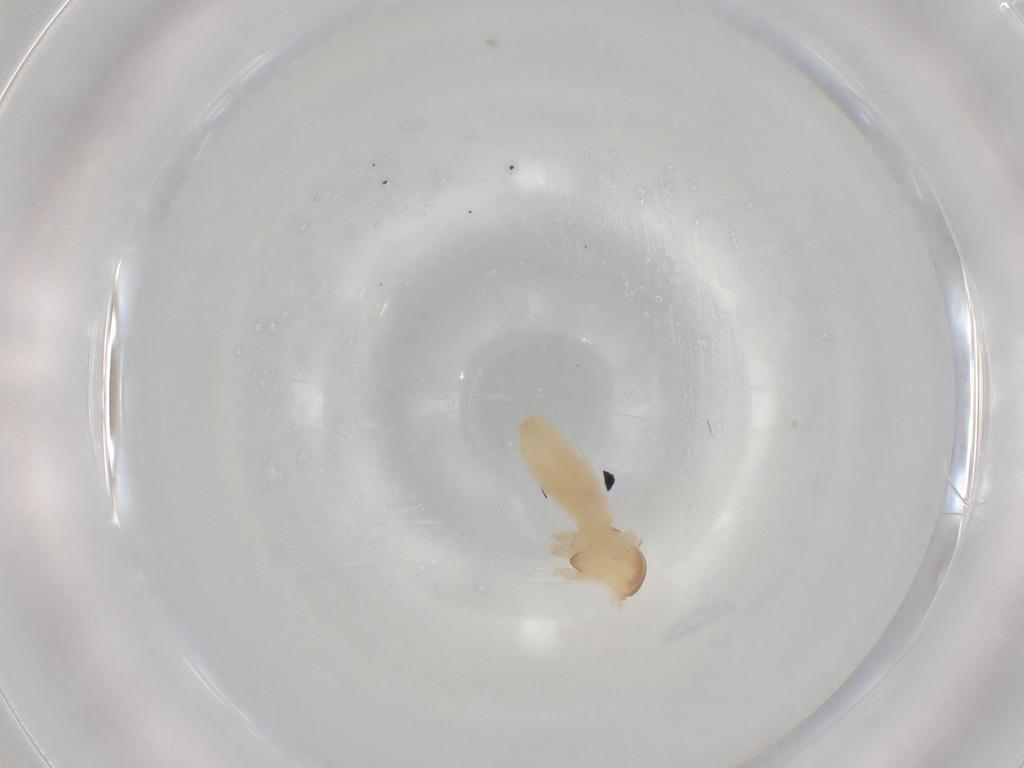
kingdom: Animalia
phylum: Arthropoda
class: Insecta
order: Diptera
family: Cecidomyiidae
